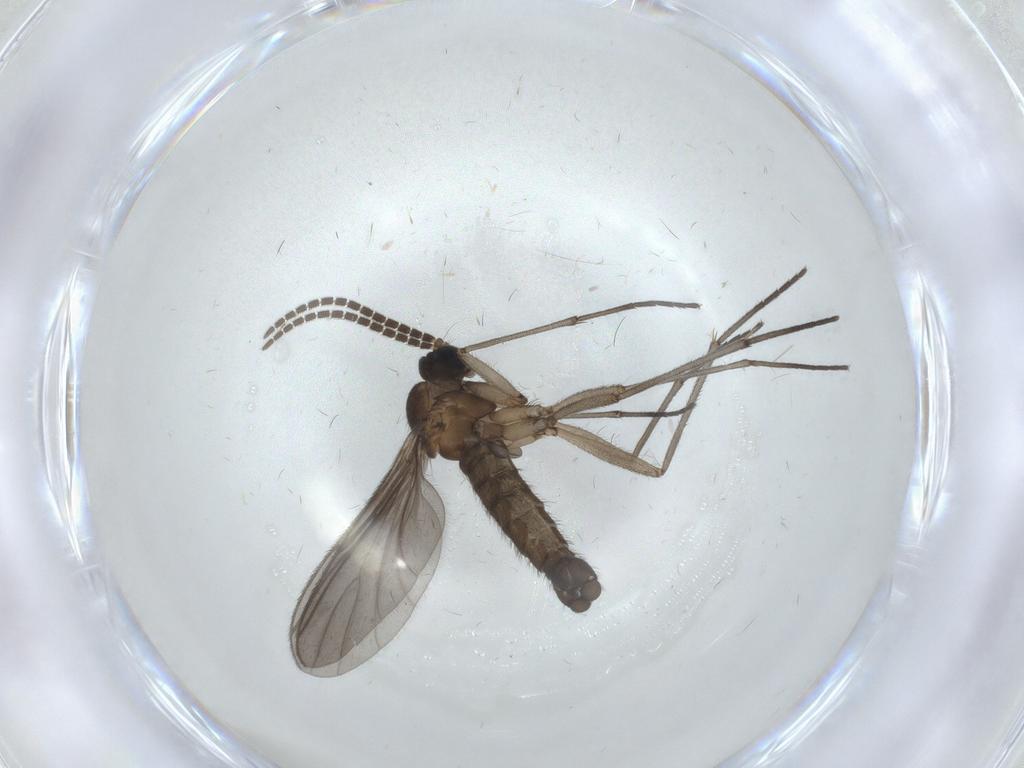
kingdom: Animalia
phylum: Arthropoda
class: Insecta
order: Diptera
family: Sciaridae
